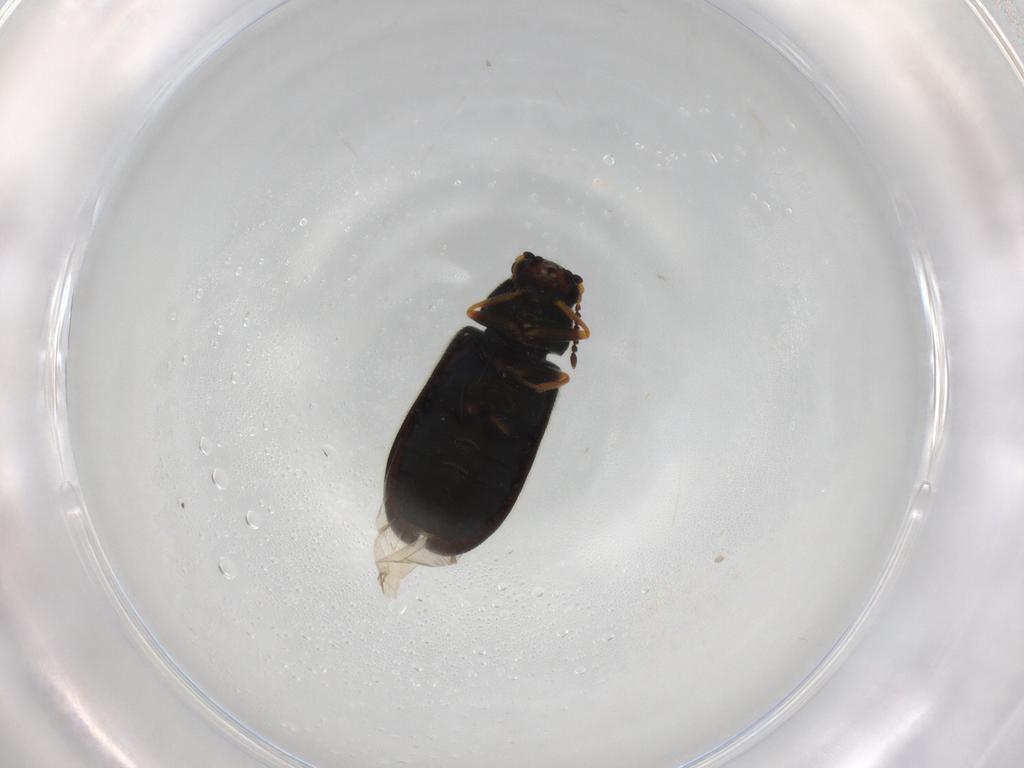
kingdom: Animalia
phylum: Arthropoda
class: Insecta
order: Coleoptera
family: Dasytidae
